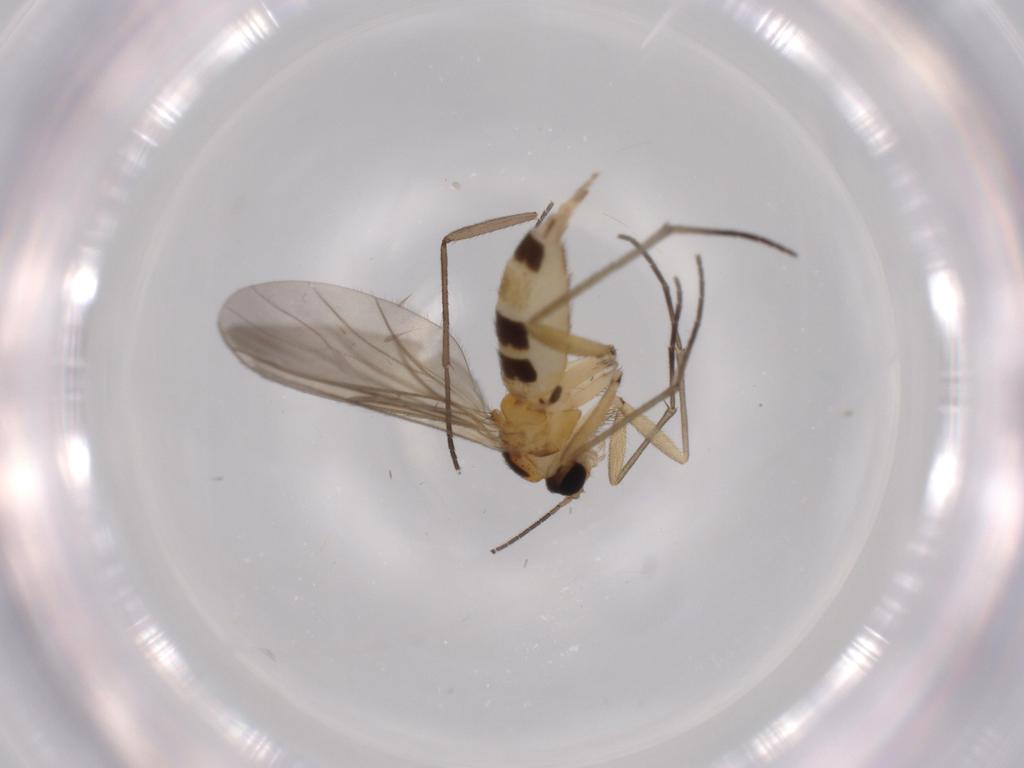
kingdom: Animalia
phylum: Arthropoda
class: Insecta
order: Diptera
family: Sciaridae
